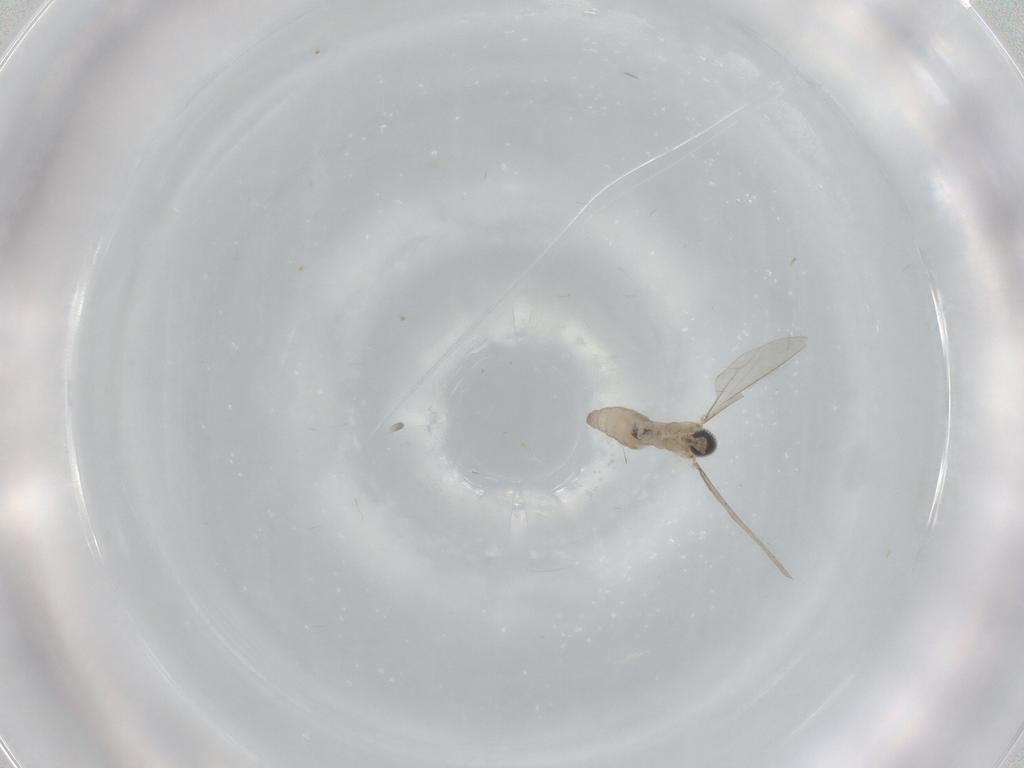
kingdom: Animalia
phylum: Arthropoda
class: Insecta
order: Diptera
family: Cecidomyiidae
